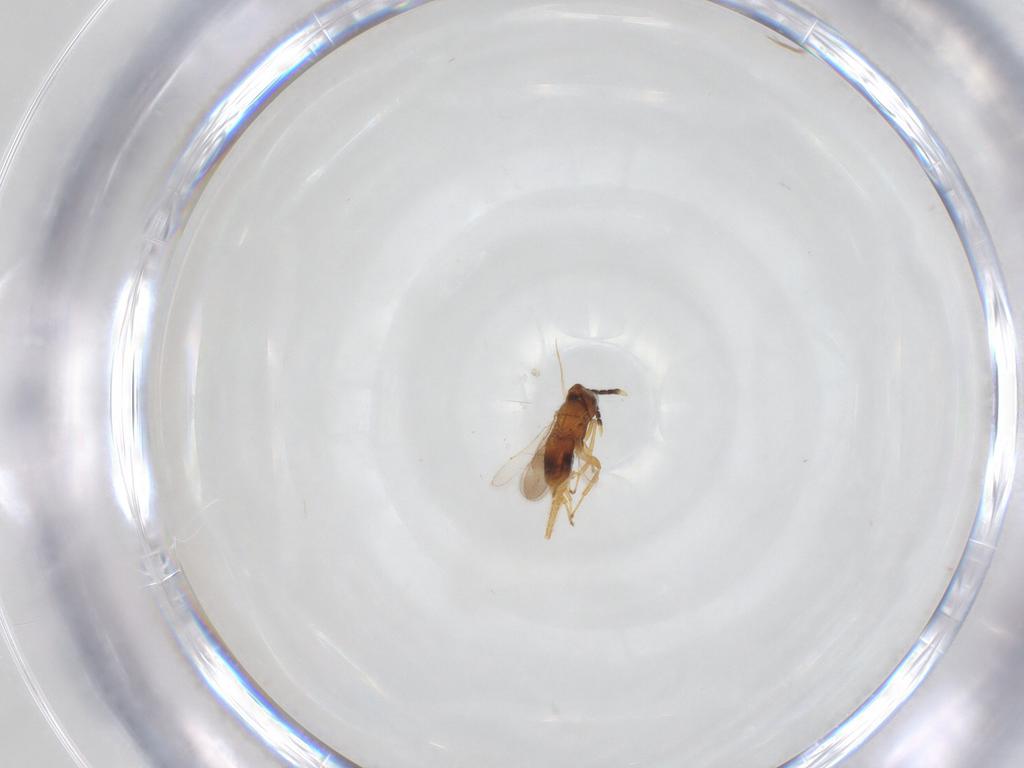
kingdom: Animalia
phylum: Arthropoda
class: Insecta
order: Hymenoptera
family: Aphelinidae
